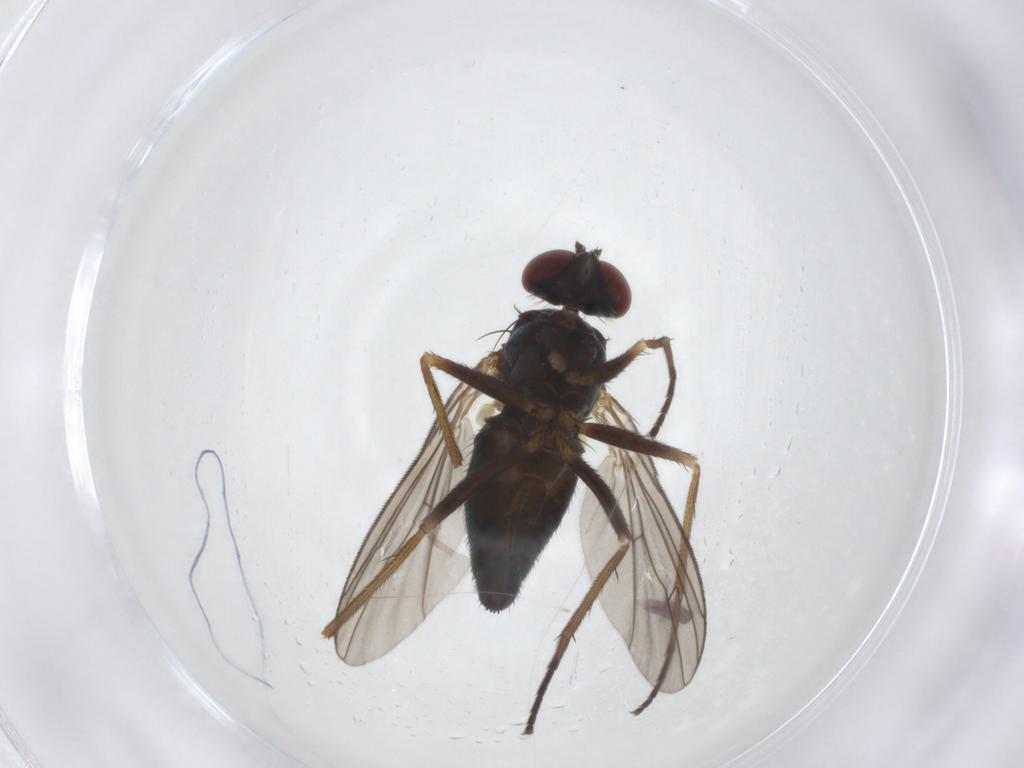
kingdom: Animalia
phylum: Arthropoda
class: Insecta
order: Diptera
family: Dolichopodidae
